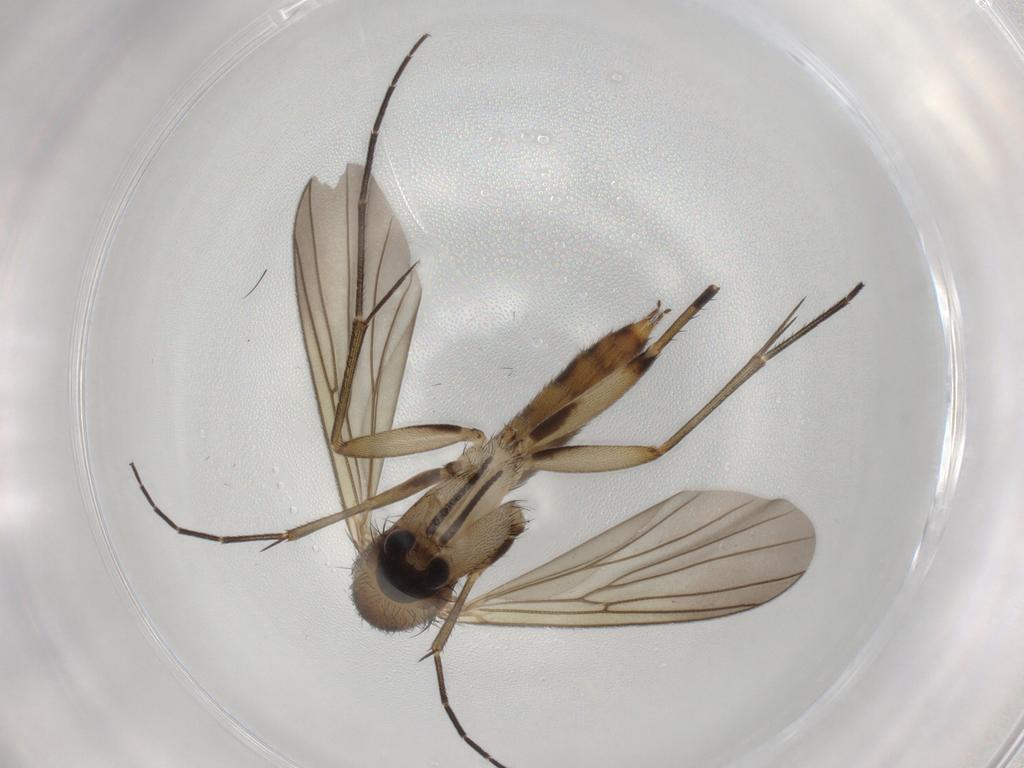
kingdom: Animalia
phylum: Arthropoda
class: Insecta
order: Diptera
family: Mycetophilidae
